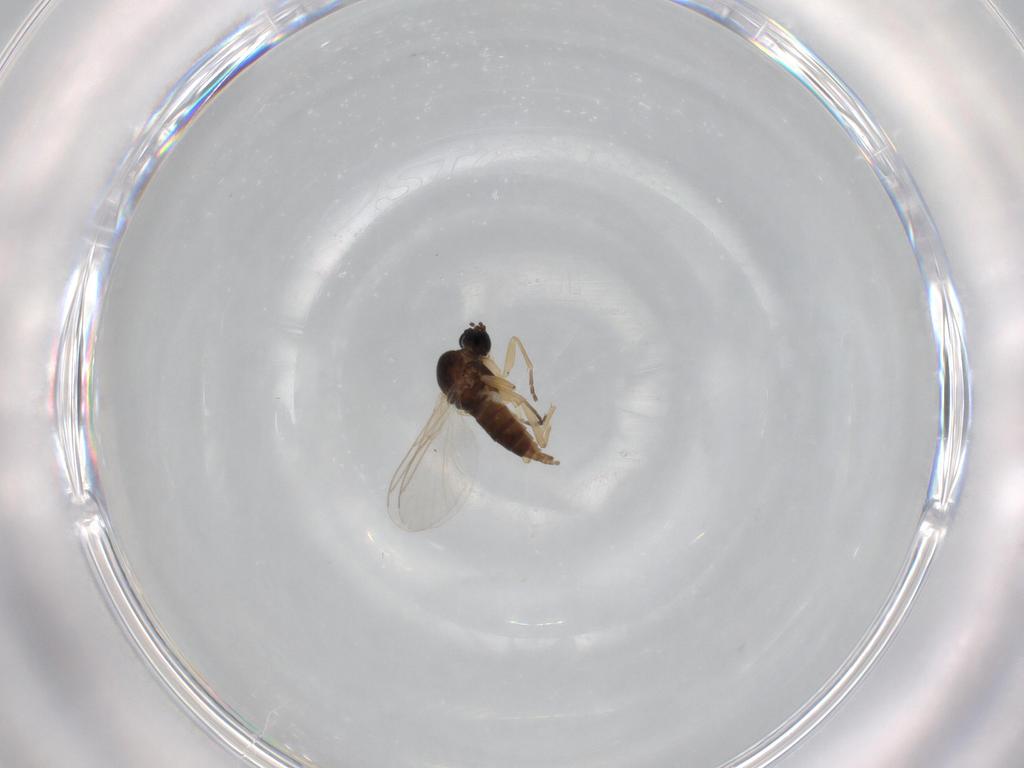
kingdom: Animalia
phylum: Arthropoda
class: Insecta
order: Diptera
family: Sciaridae
